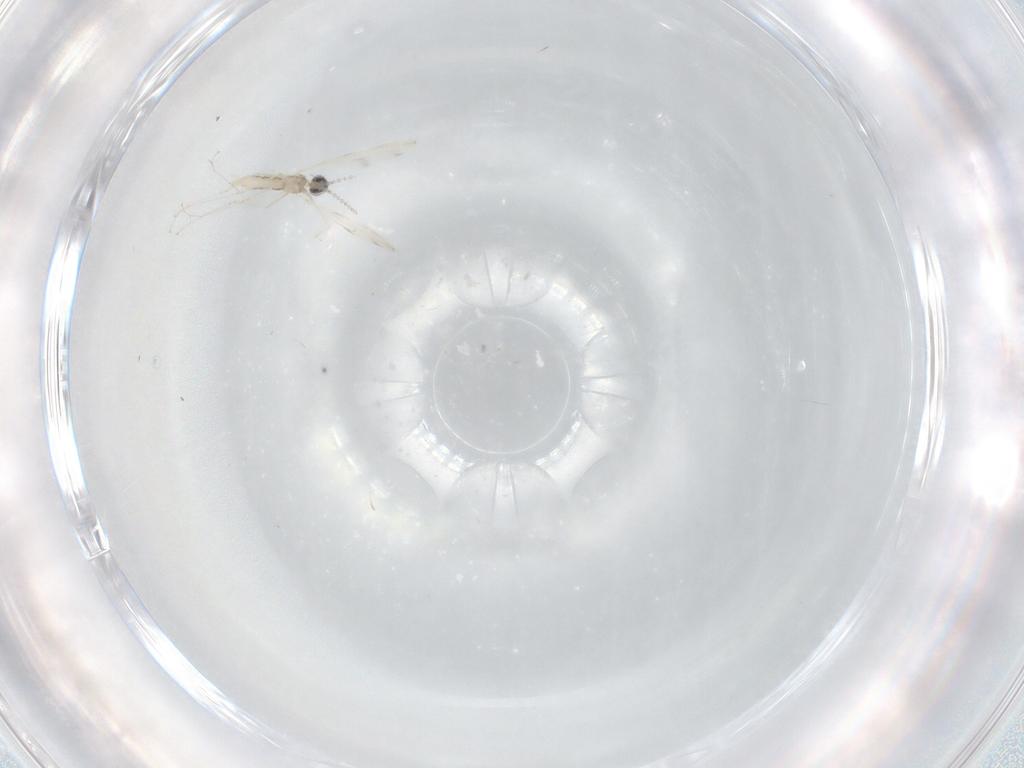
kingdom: Animalia
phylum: Arthropoda
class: Insecta
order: Diptera
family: Cecidomyiidae
